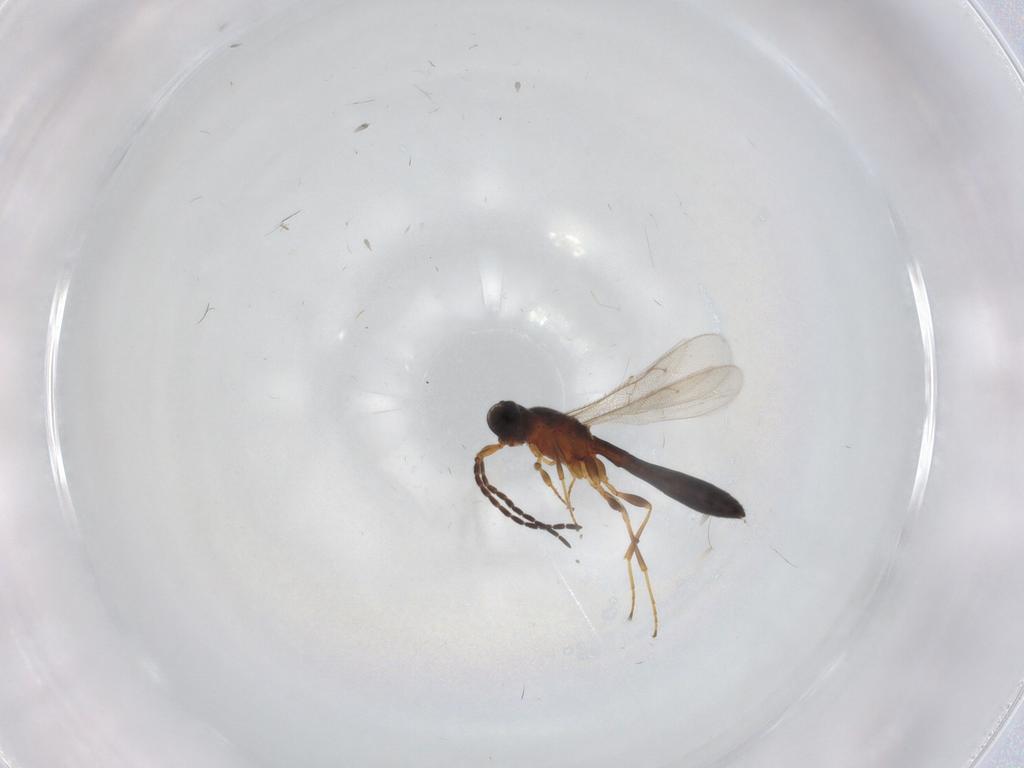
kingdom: Animalia
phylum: Arthropoda
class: Insecta
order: Hymenoptera
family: Scelionidae
